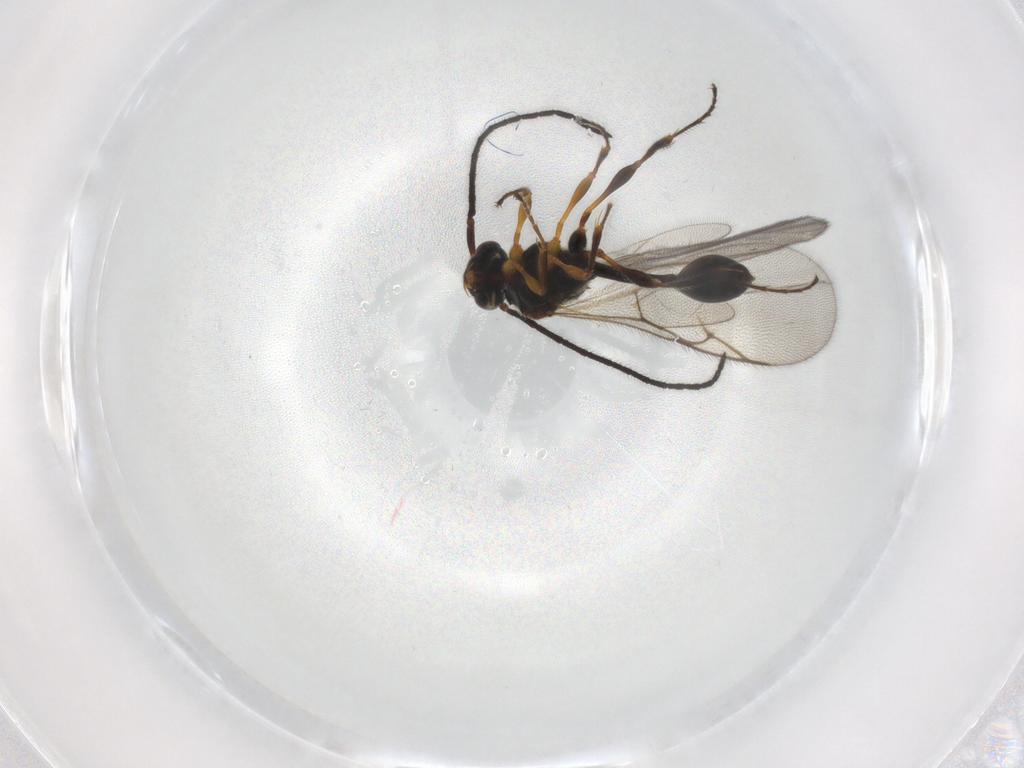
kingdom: Animalia
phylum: Arthropoda
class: Insecta
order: Hymenoptera
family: Diapriidae
